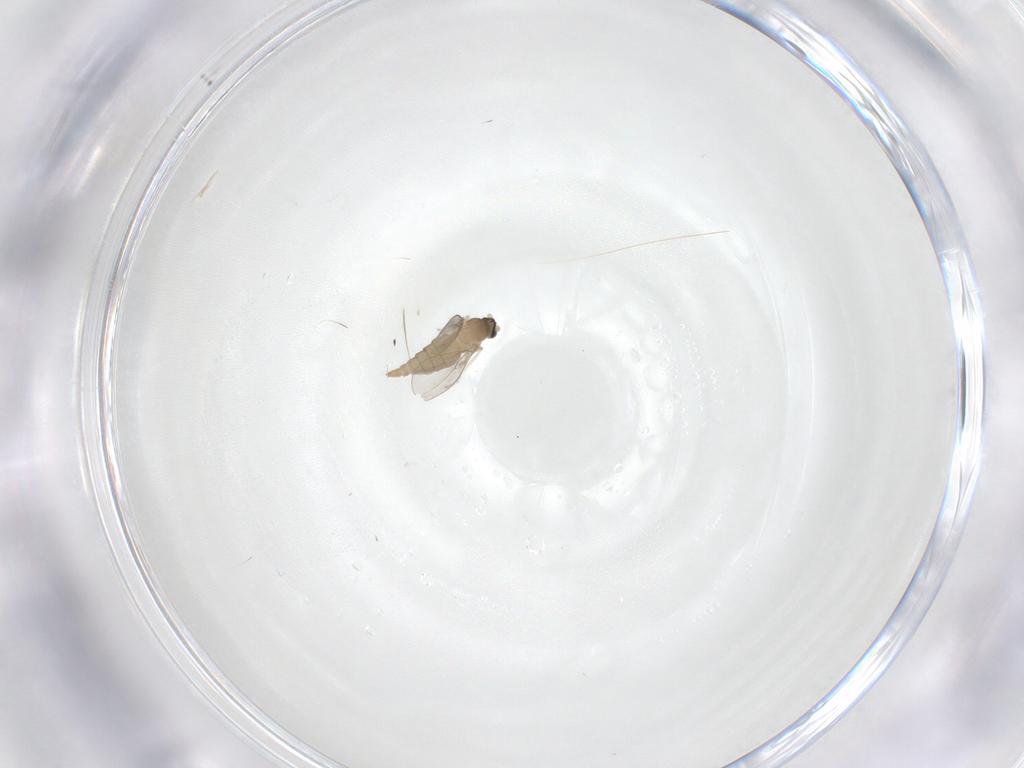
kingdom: Animalia
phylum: Arthropoda
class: Insecta
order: Diptera
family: Cecidomyiidae
